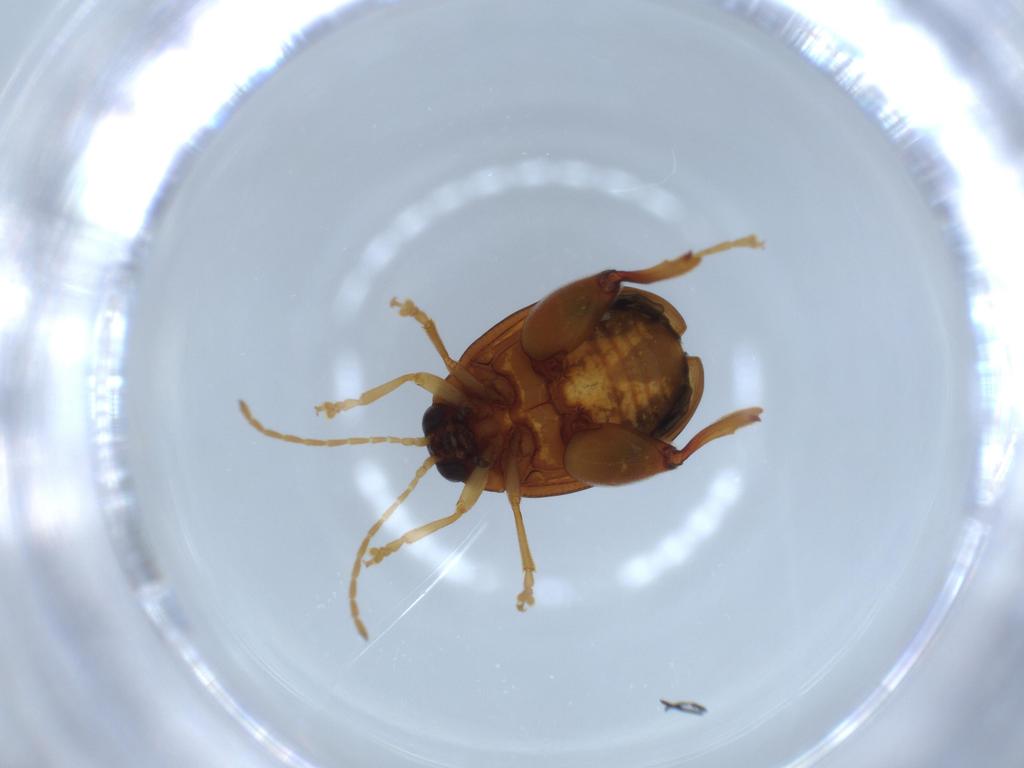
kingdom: Animalia
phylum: Arthropoda
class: Insecta
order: Coleoptera
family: Chrysomelidae
